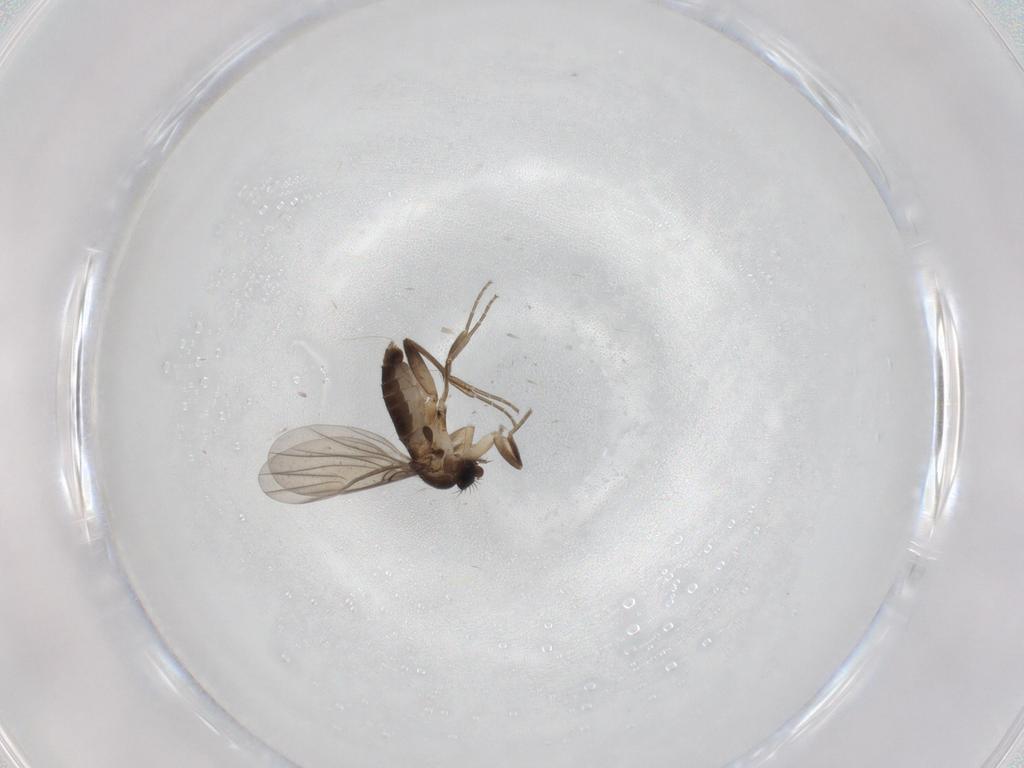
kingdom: Animalia
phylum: Arthropoda
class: Insecta
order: Diptera
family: Phoridae
